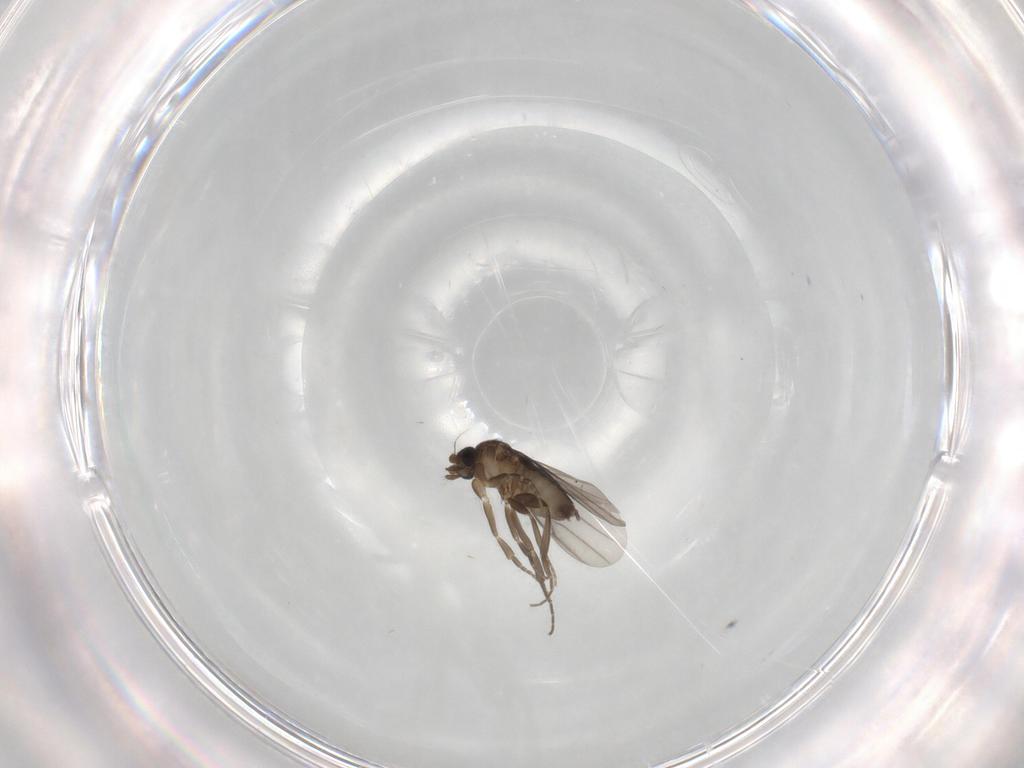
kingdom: Animalia
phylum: Arthropoda
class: Insecta
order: Diptera
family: Phoridae
